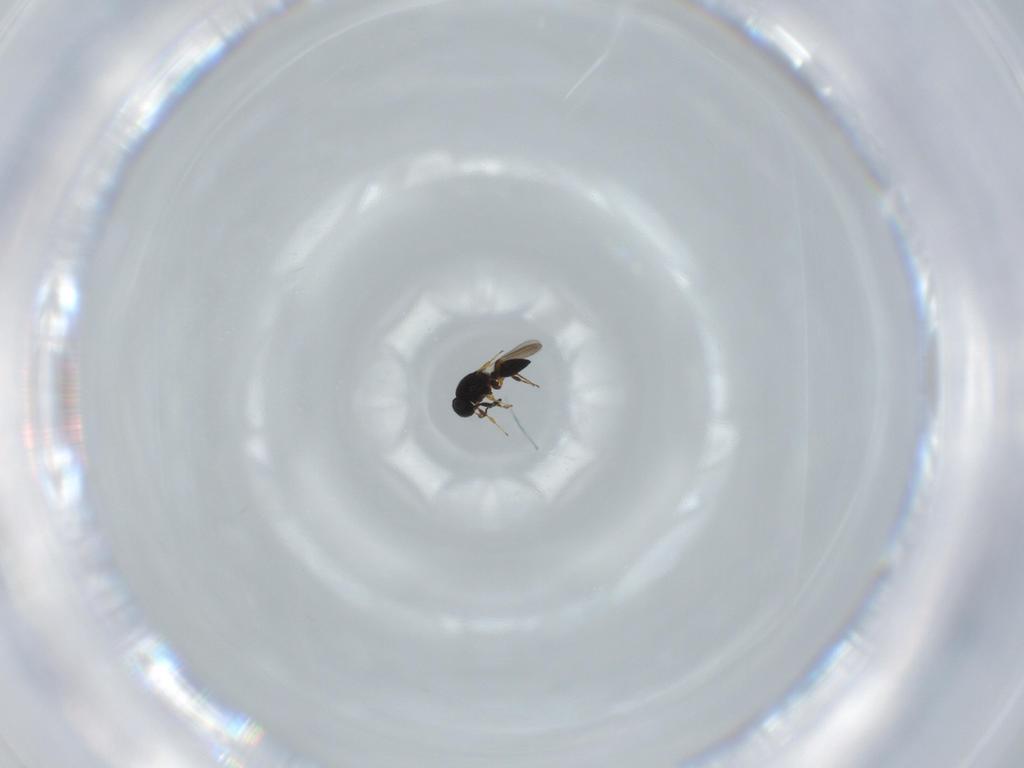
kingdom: Animalia
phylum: Arthropoda
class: Insecta
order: Hymenoptera
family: Platygastridae
